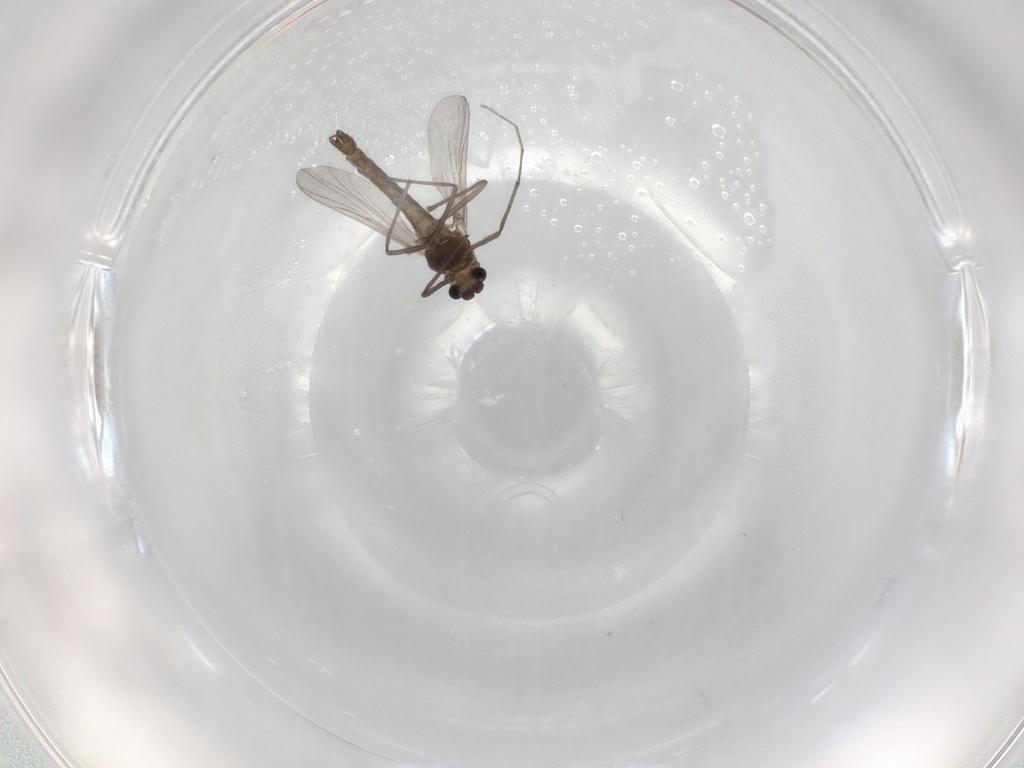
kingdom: Animalia
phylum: Arthropoda
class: Insecta
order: Diptera
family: Chironomidae
